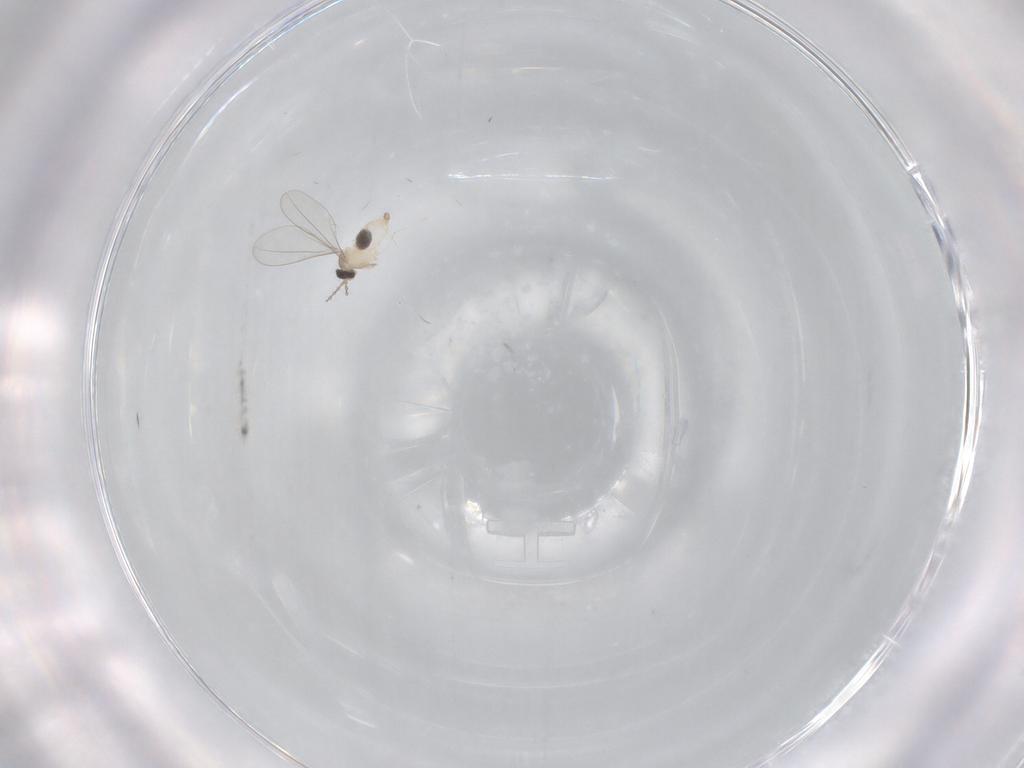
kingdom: Animalia
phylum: Arthropoda
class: Insecta
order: Diptera
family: Cecidomyiidae
